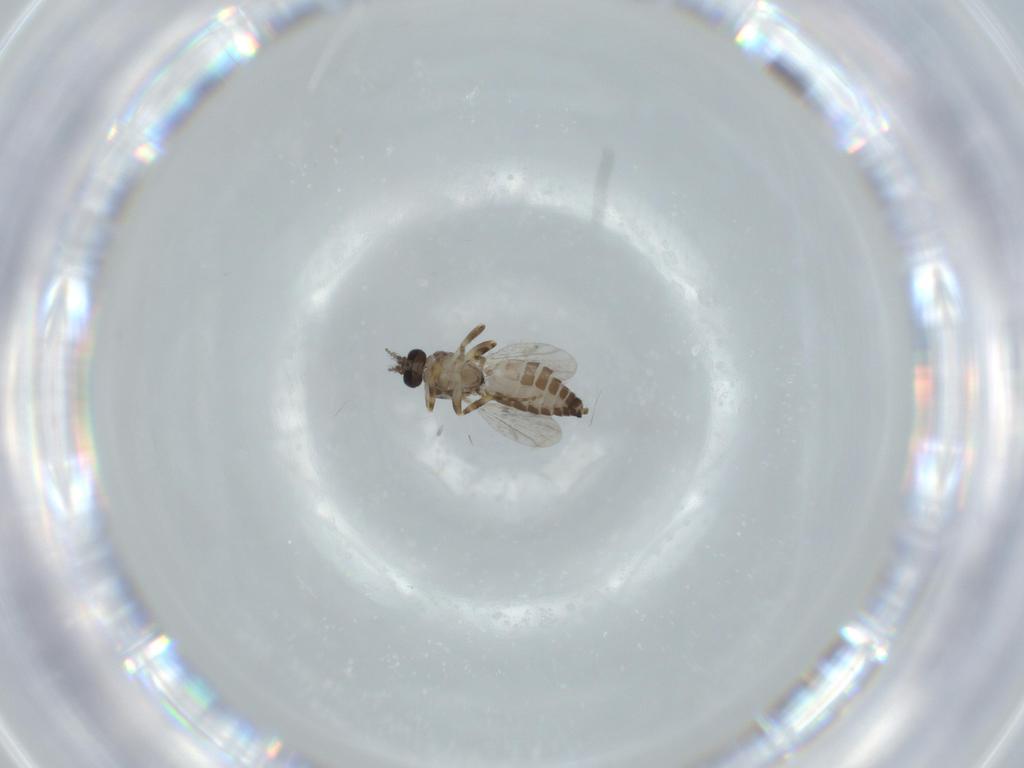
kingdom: Animalia
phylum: Arthropoda
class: Insecta
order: Diptera
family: Ceratopogonidae
